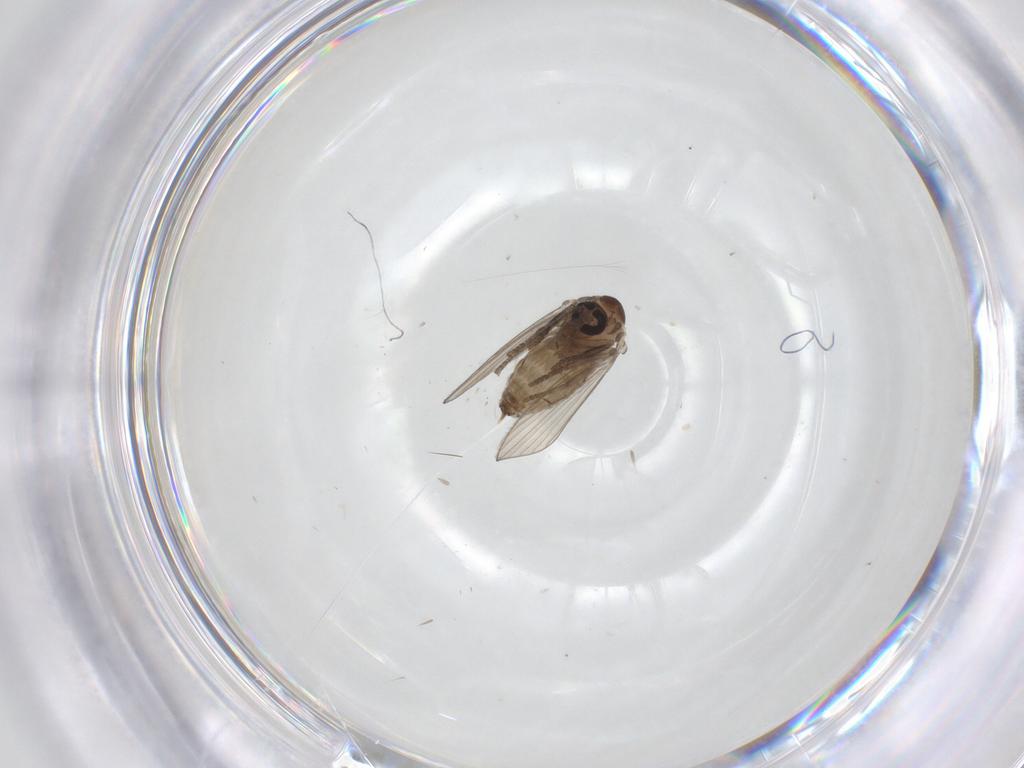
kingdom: Animalia
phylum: Arthropoda
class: Insecta
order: Diptera
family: Psychodidae
